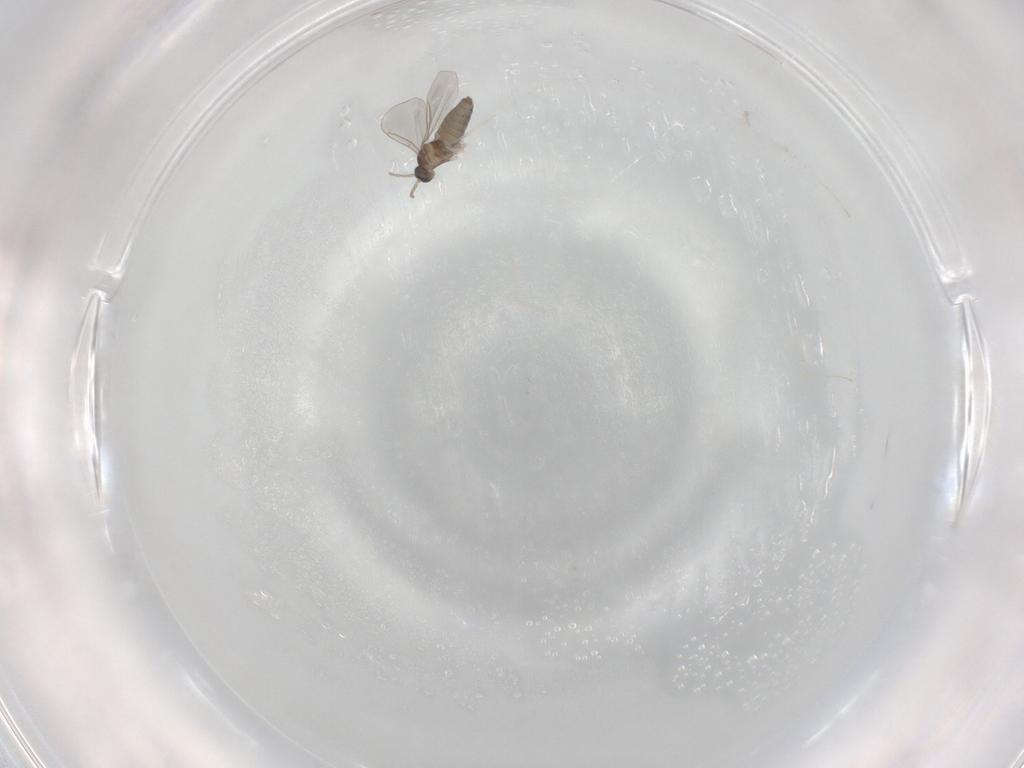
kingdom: Animalia
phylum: Arthropoda
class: Insecta
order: Diptera
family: Cecidomyiidae
